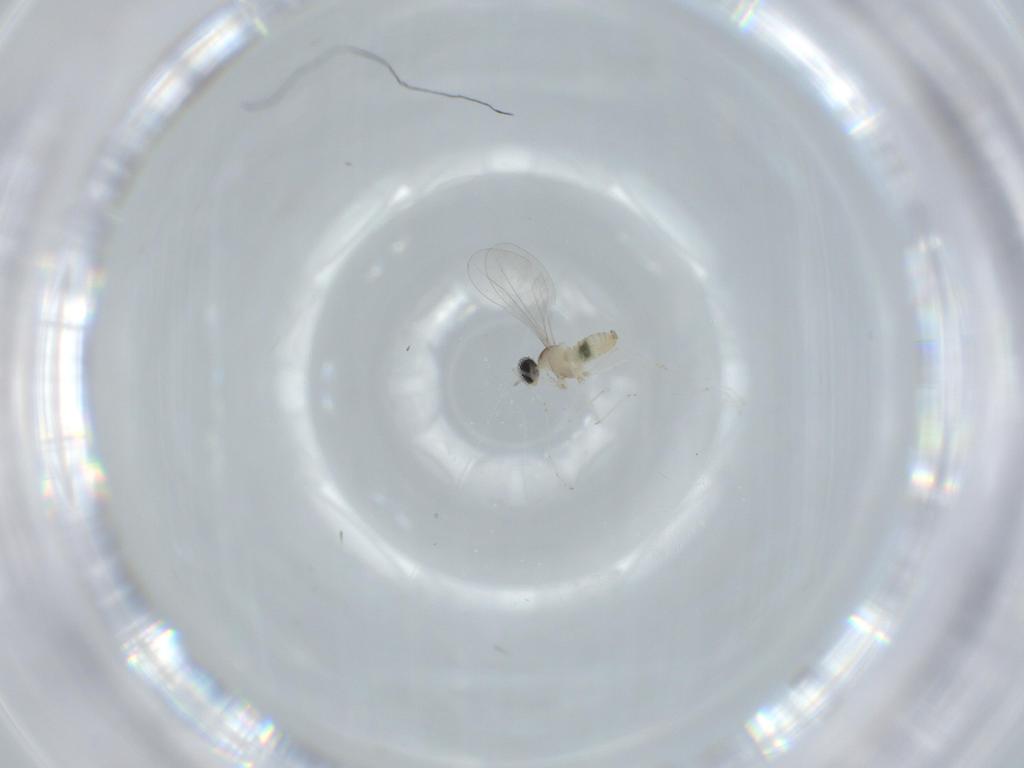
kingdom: Animalia
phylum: Arthropoda
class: Insecta
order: Diptera
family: Cecidomyiidae
